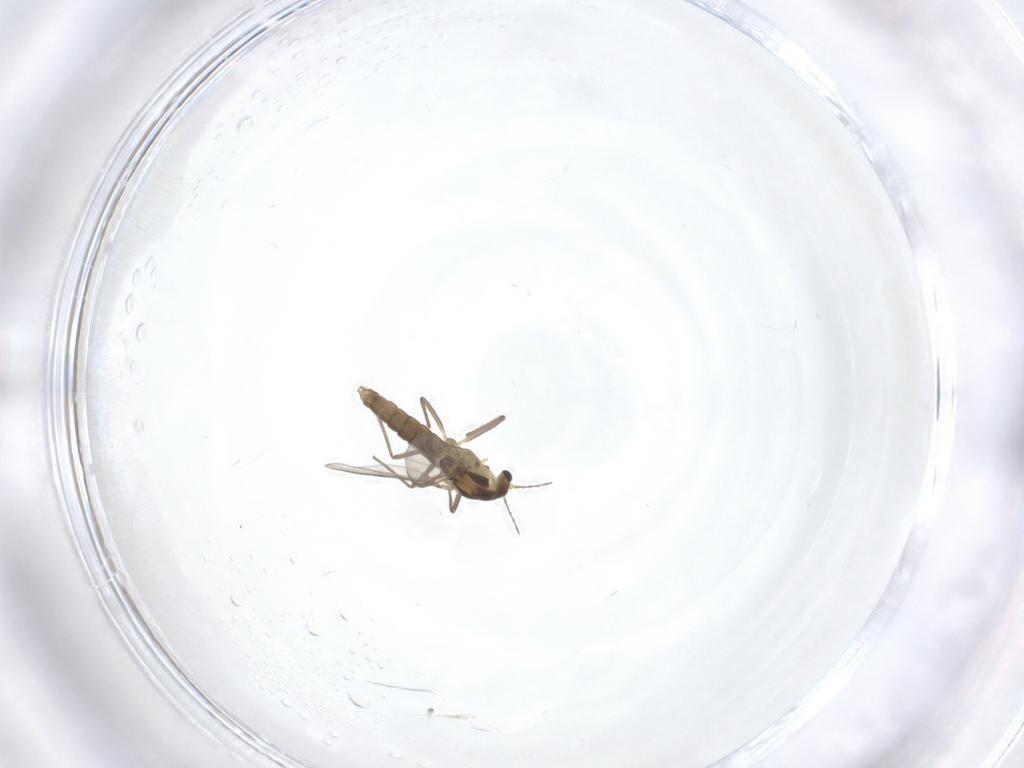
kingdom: Animalia
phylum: Arthropoda
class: Insecta
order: Diptera
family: Chironomidae
